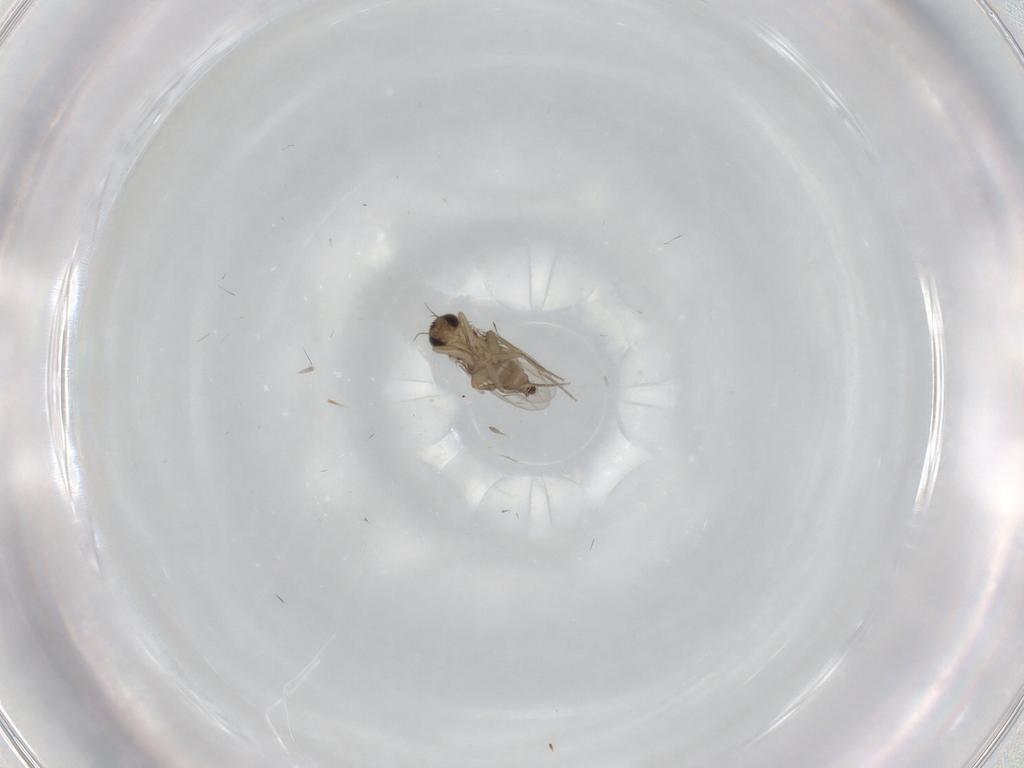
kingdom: Animalia
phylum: Arthropoda
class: Insecta
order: Diptera
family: Phoridae
